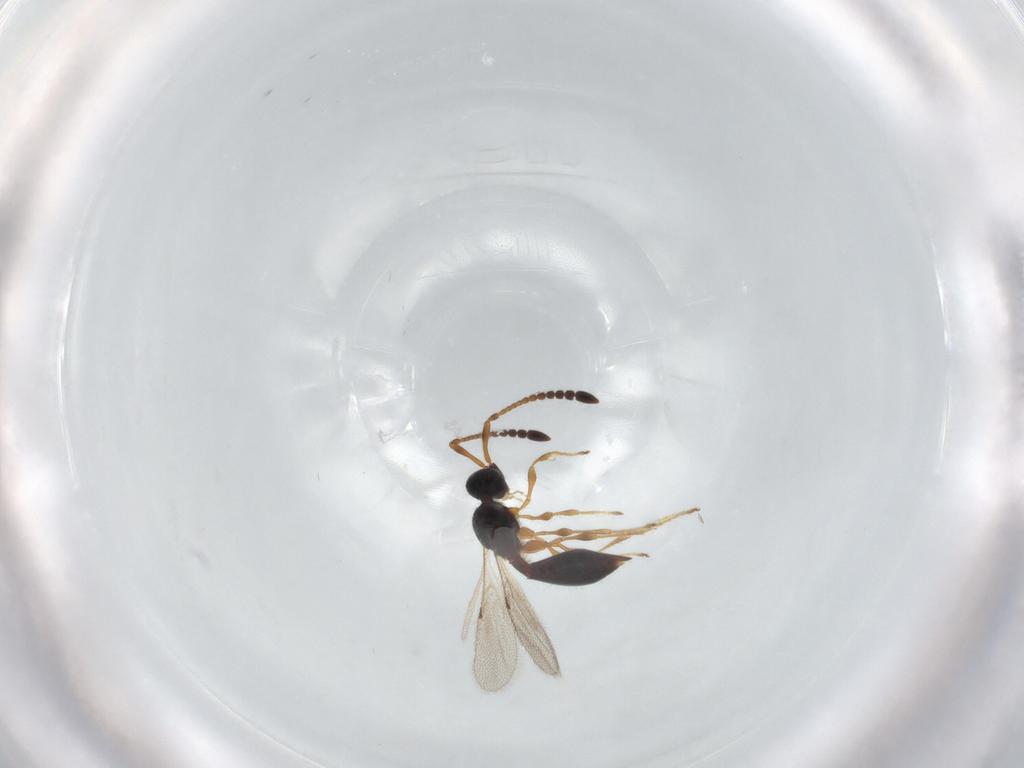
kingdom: Animalia
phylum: Arthropoda
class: Insecta
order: Hymenoptera
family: Diapriidae
